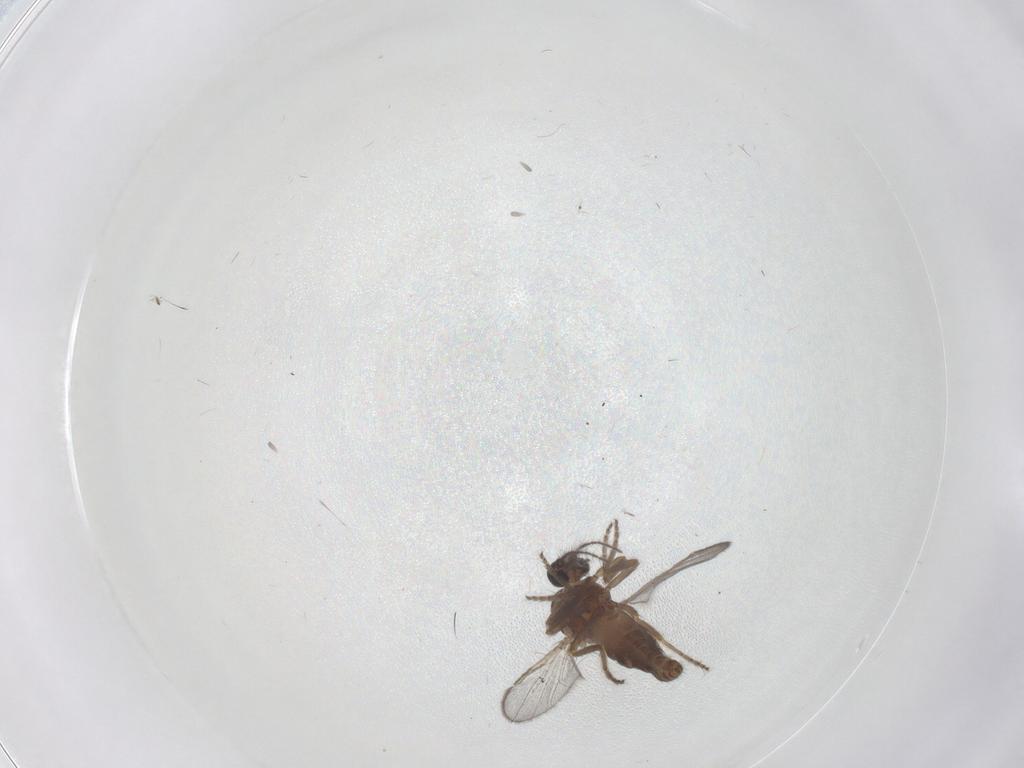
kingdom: Animalia
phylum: Arthropoda
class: Insecta
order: Diptera
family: Ceratopogonidae
